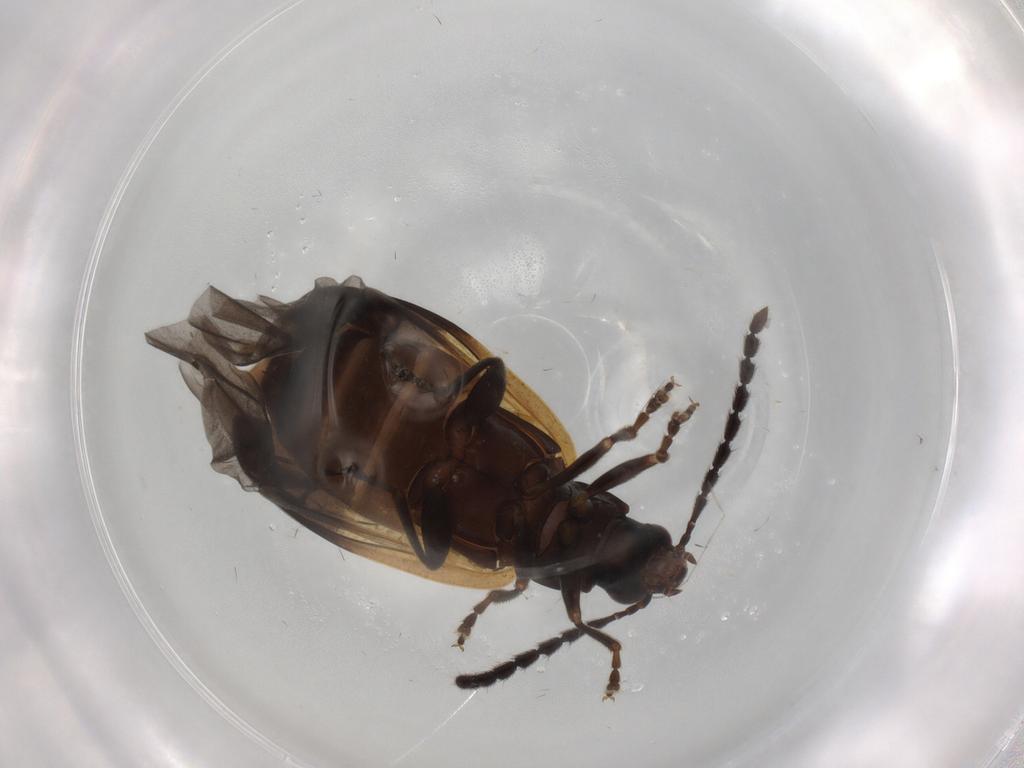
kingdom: Animalia
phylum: Arthropoda
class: Insecta
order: Coleoptera
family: Chrysomelidae
